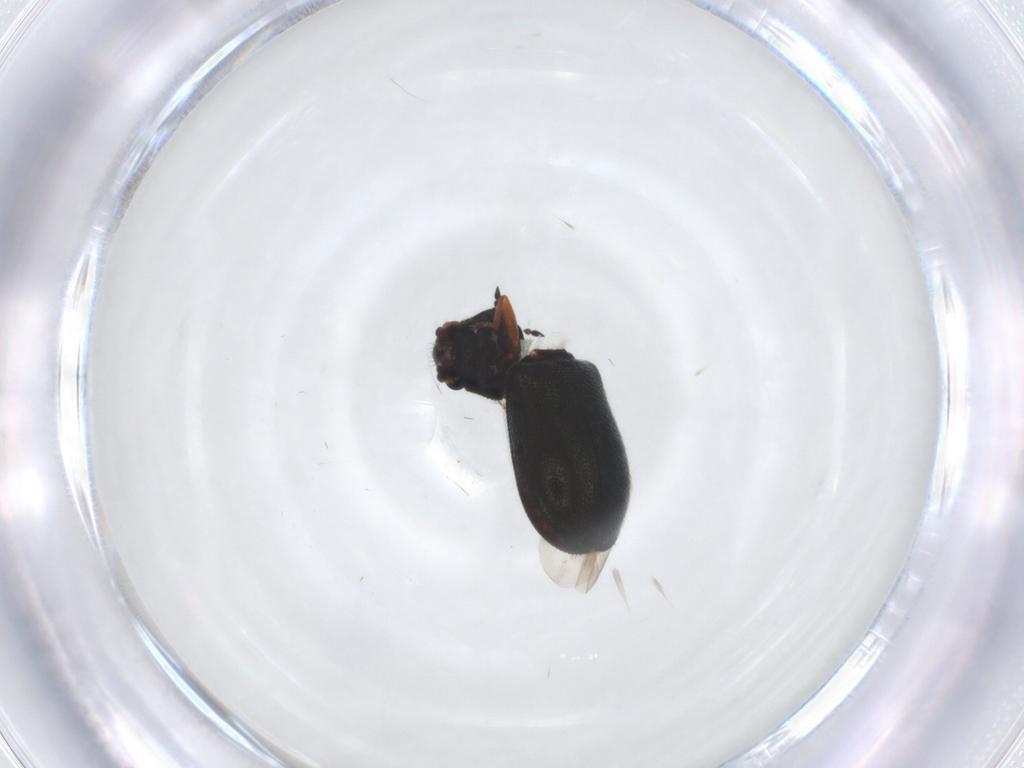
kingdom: Animalia
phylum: Arthropoda
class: Insecta
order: Coleoptera
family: Melyridae
